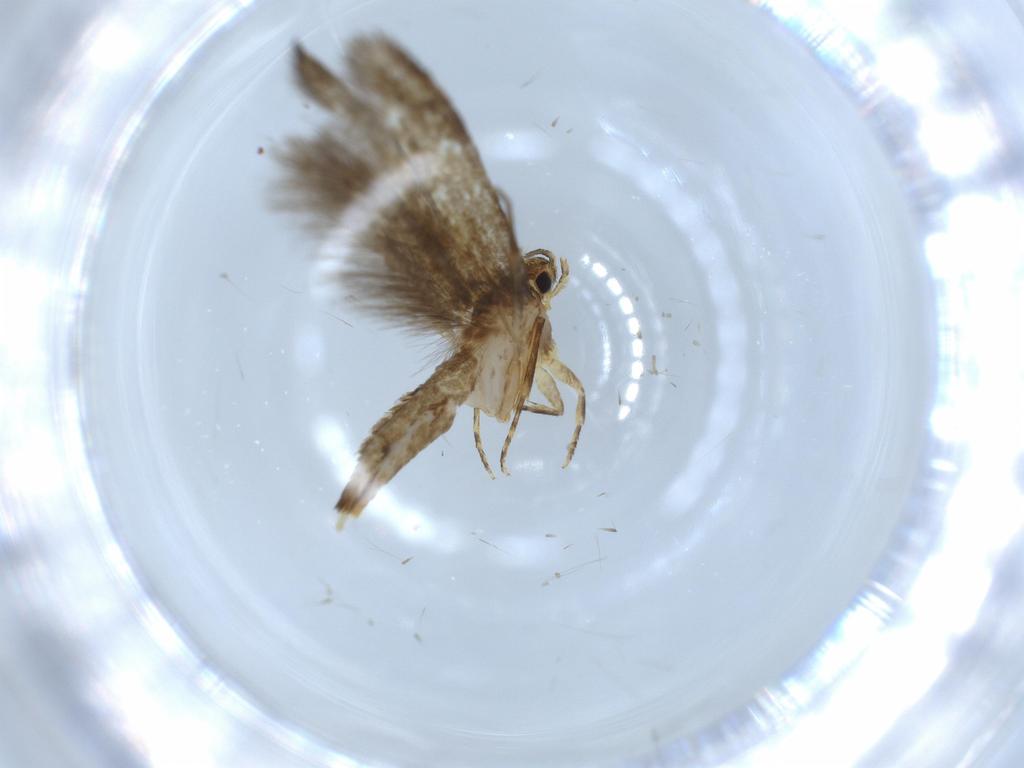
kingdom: Animalia
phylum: Arthropoda
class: Insecta
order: Lepidoptera
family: Tineidae
